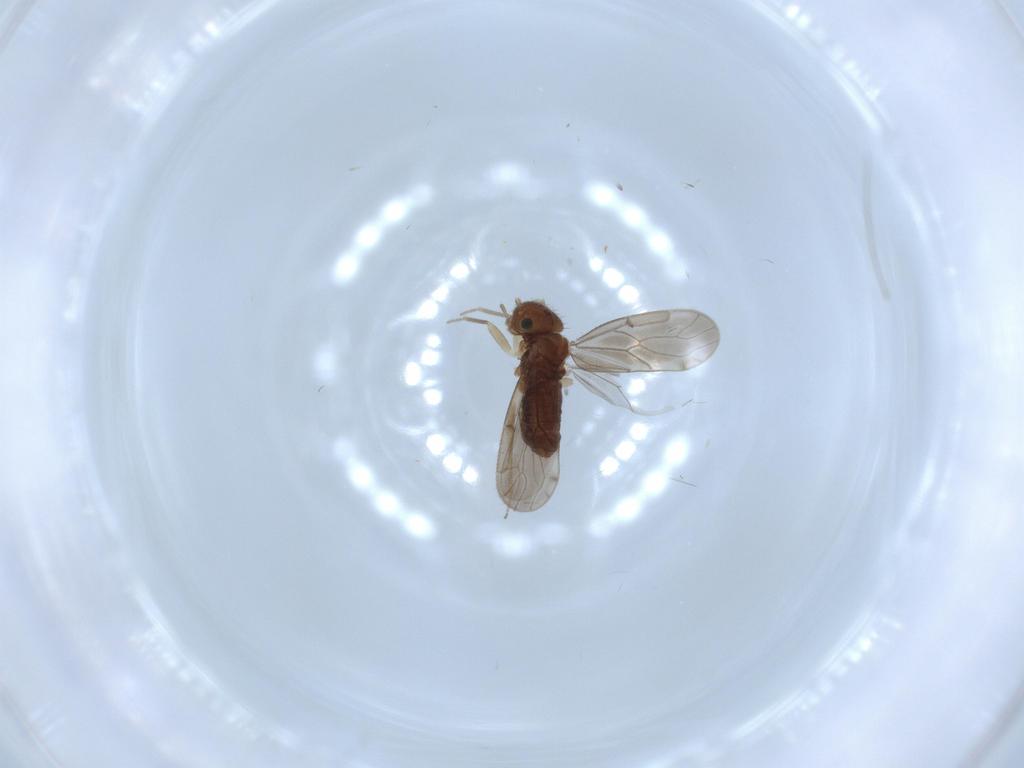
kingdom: Animalia
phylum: Arthropoda
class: Insecta
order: Psocodea
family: Ectopsocidae
